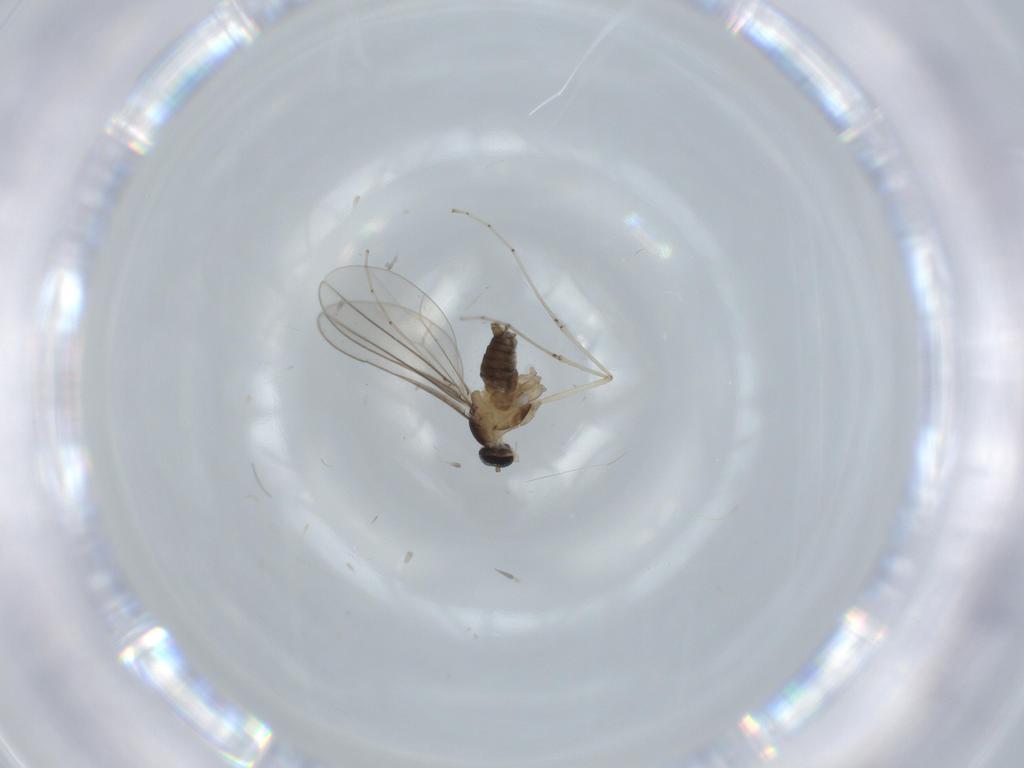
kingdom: Animalia
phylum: Arthropoda
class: Insecta
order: Diptera
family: Cecidomyiidae
